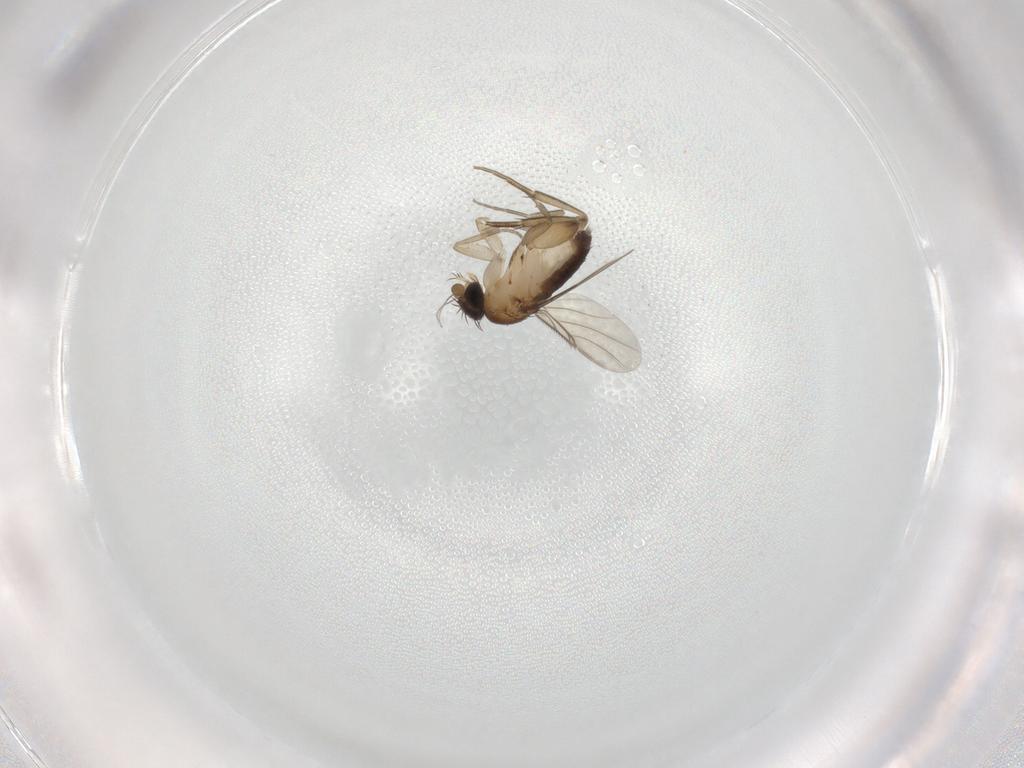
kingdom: Animalia
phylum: Arthropoda
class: Insecta
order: Diptera
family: Phoridae
